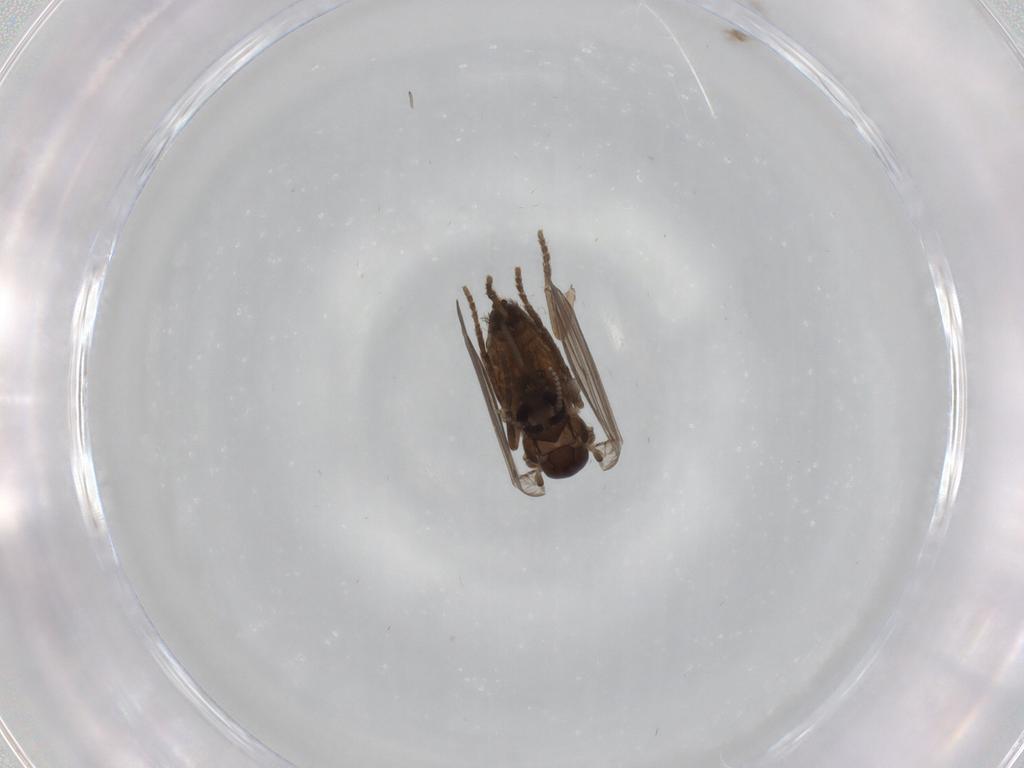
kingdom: Animalia
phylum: Arthropoda
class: Insecta
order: Diptera
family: Psychodidae
